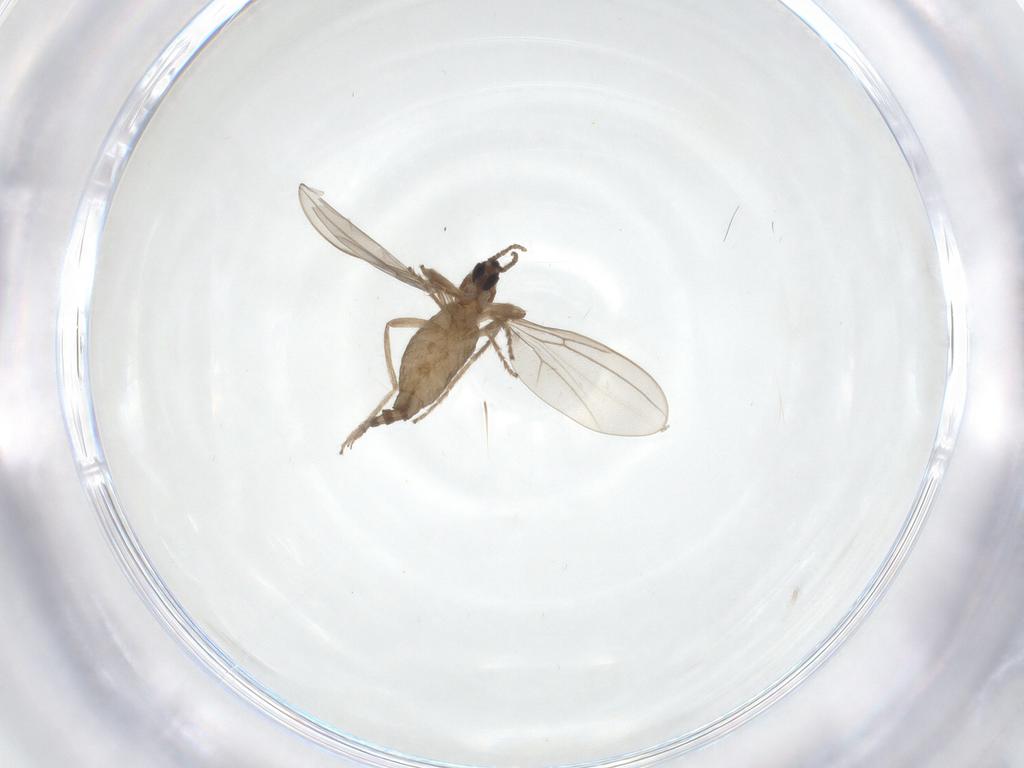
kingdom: Animalia
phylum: Arthropoda
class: Insecta
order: Diptera
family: Cecidomyiidae
